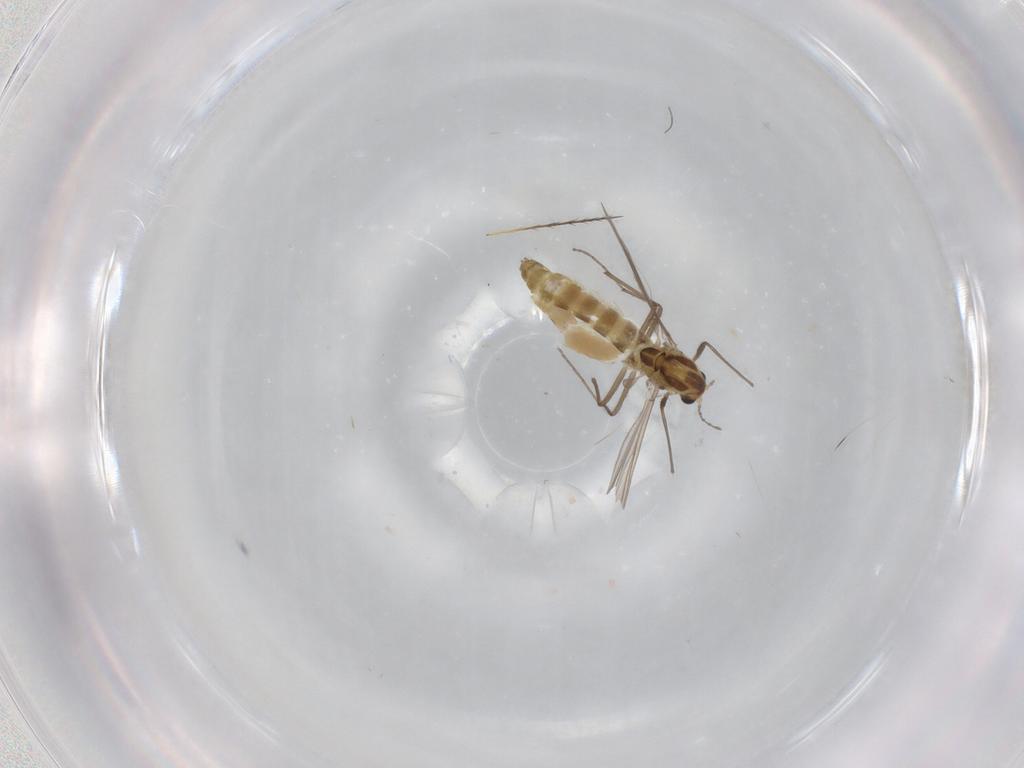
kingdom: Animalia
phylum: Arthropoda
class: Insecta
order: Diptera
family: Chironomidae
